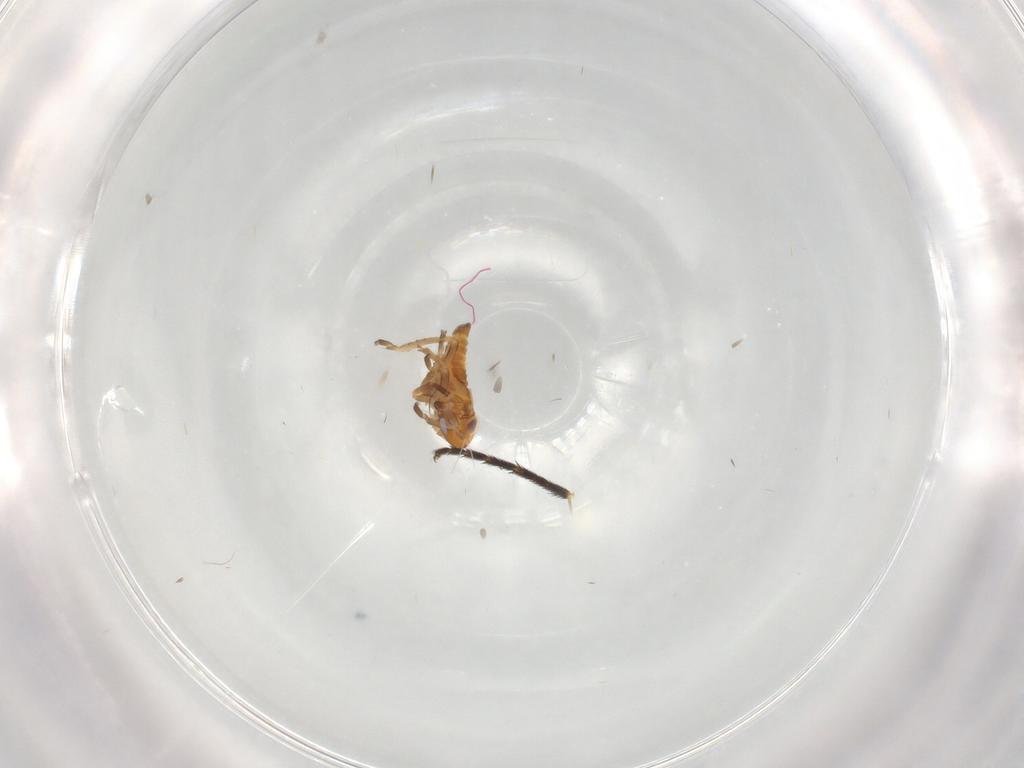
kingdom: Animalia
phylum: Arthropoda
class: Insecta
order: Hemiptera
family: Cicadellidae
